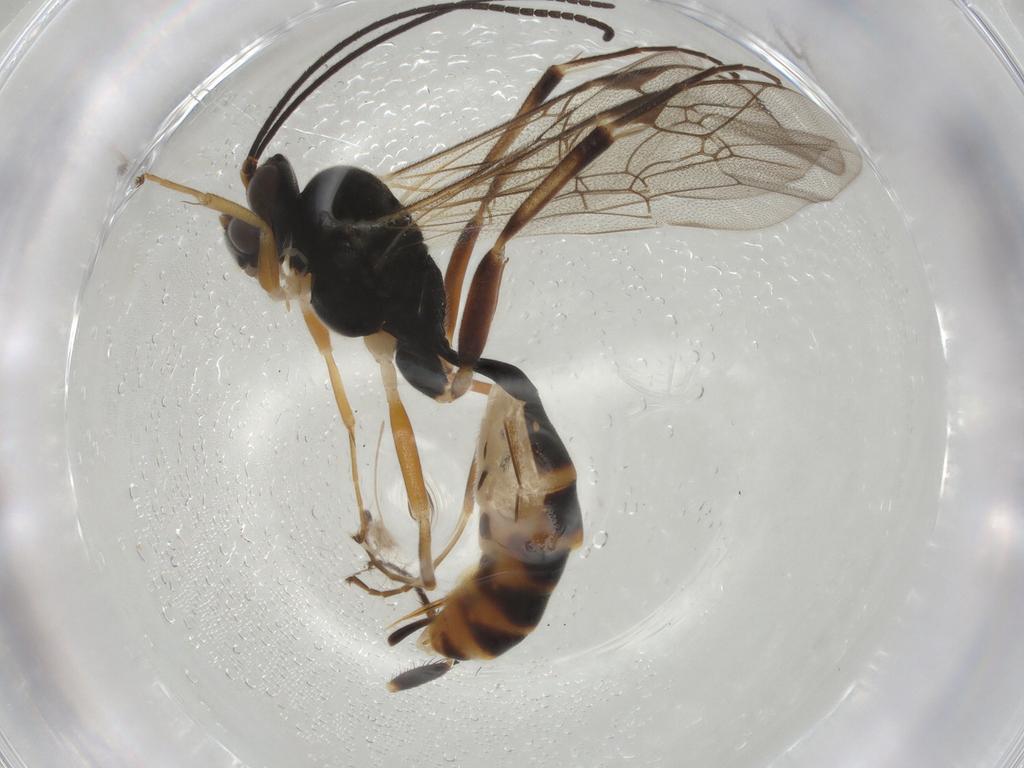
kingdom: Animalia
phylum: Arthropoda
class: Insecta
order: Hymenoptera
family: Ichneumonidae
